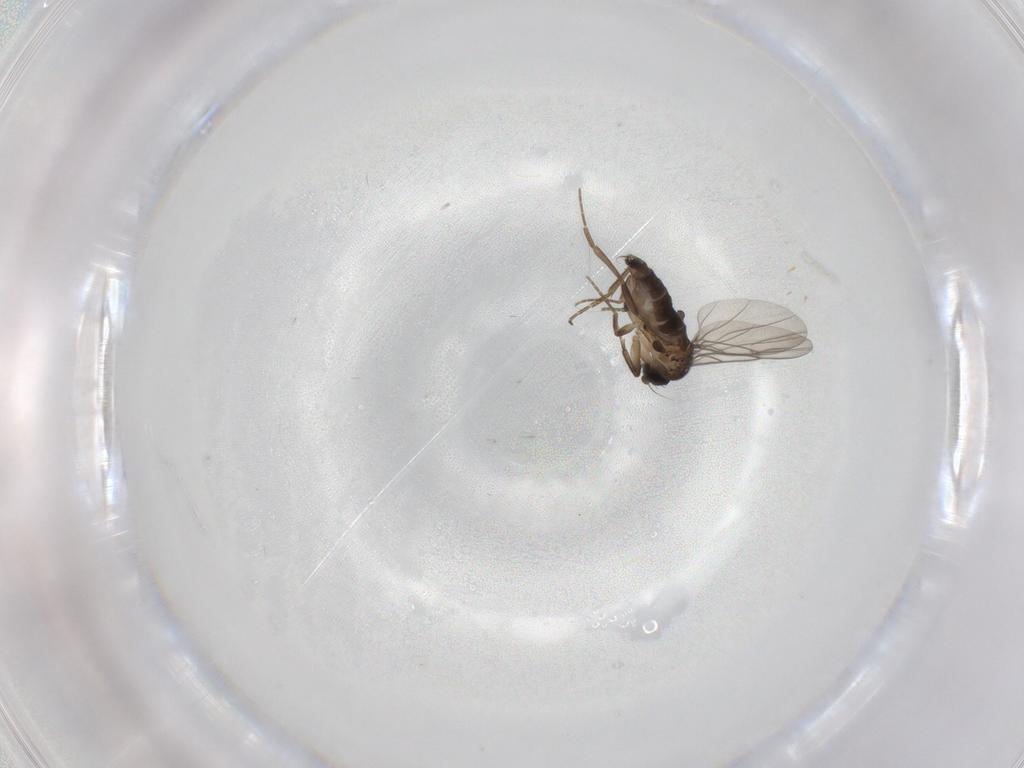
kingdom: Animalia
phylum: Arthropoda
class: Insecta
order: Diptera
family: Phoridae
